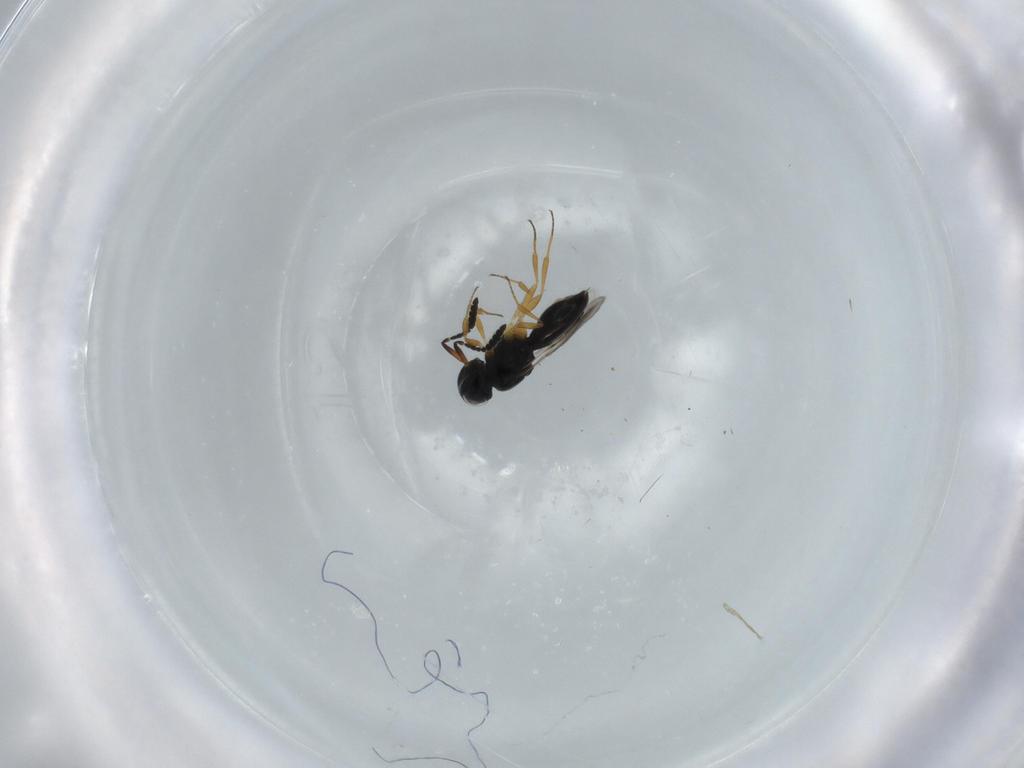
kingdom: Animalia
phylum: Arthropoda
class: Insecta
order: Hymenoptera
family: Scelionidae
